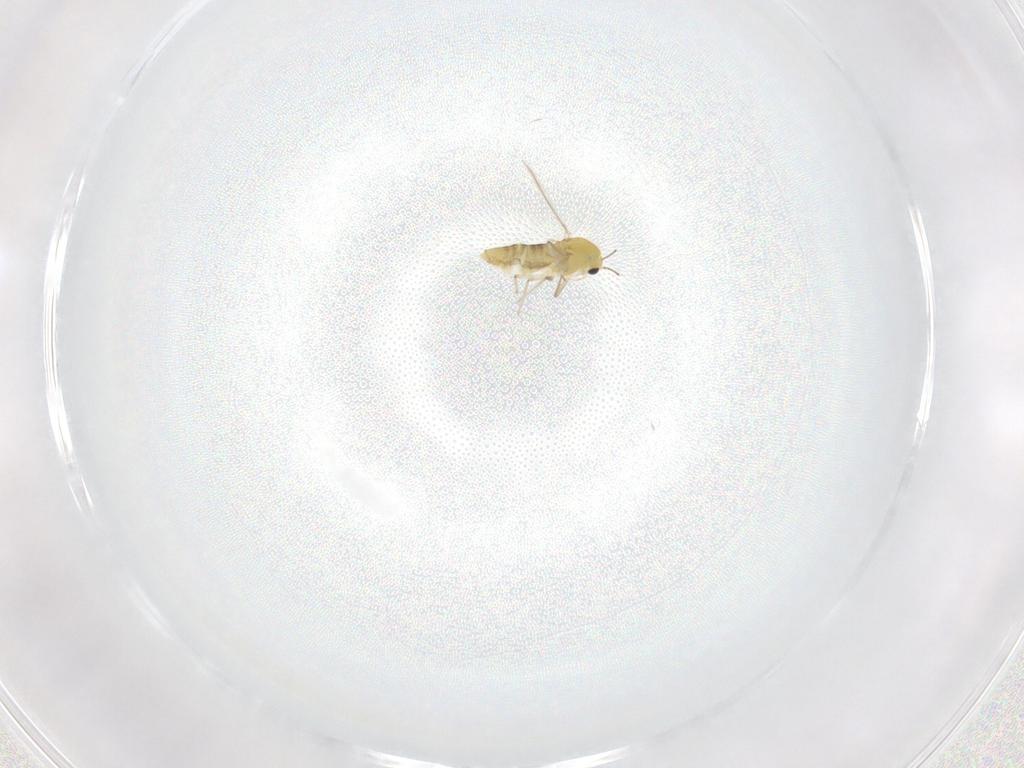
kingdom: Animalia
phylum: Arthropoda
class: Insecta
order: Diptera
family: Chironomidae
